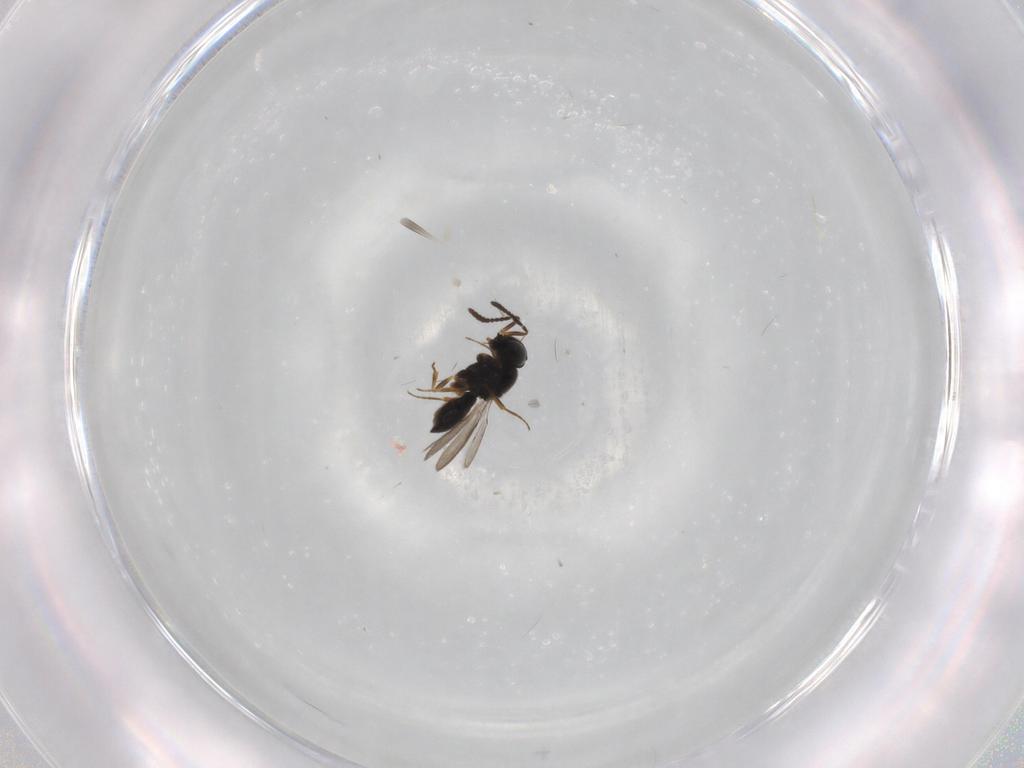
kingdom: Animalia
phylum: Arthropoda
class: Insecta
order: Hymenoptera
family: Scelionidae
